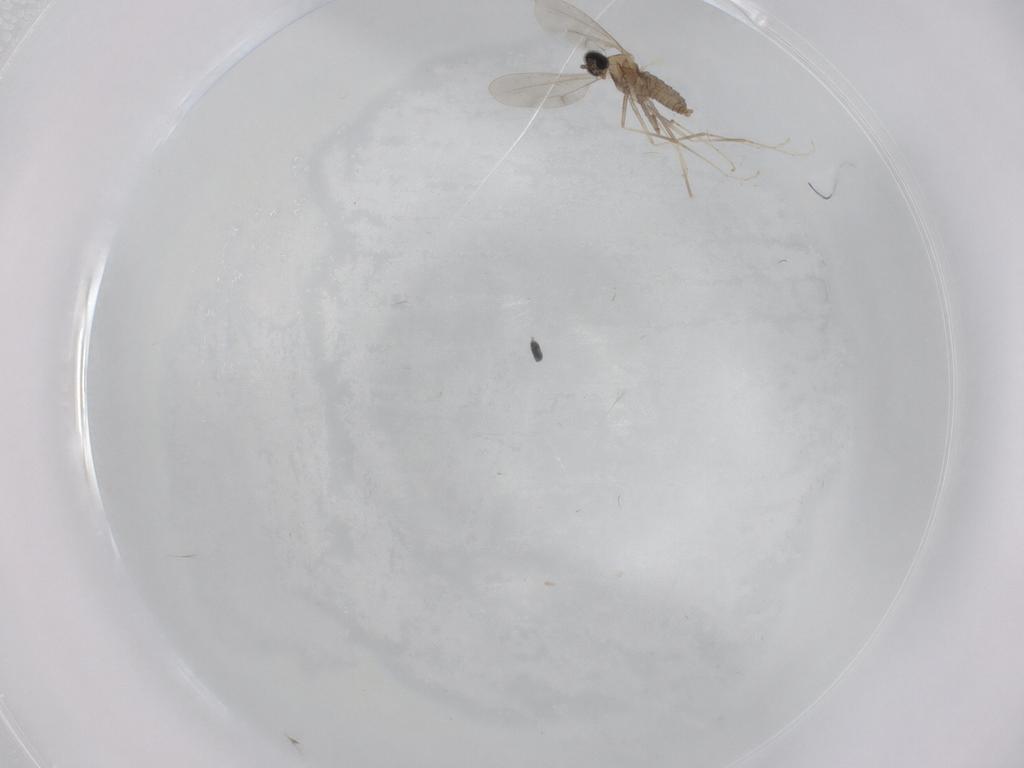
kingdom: Animalia
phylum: Arthropoda
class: Insecta
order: Diptera
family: Cecidomyiidae
